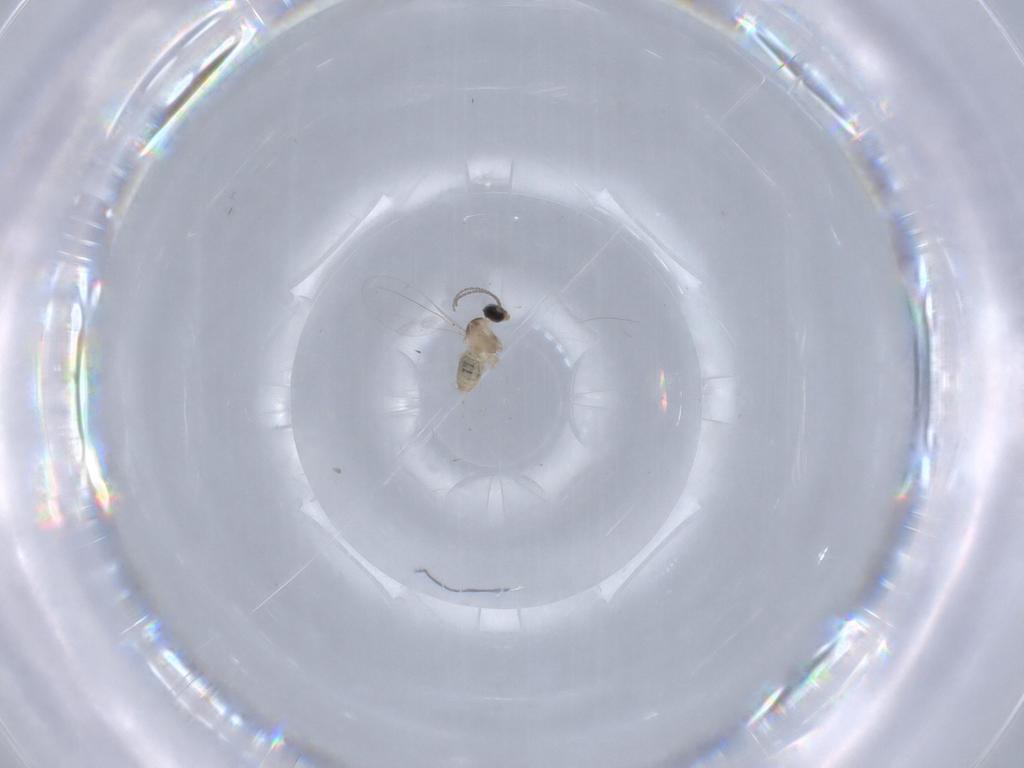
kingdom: Animalia
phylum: Arthropoda
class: Insecta
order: Diptera
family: Cecidomyiidae
